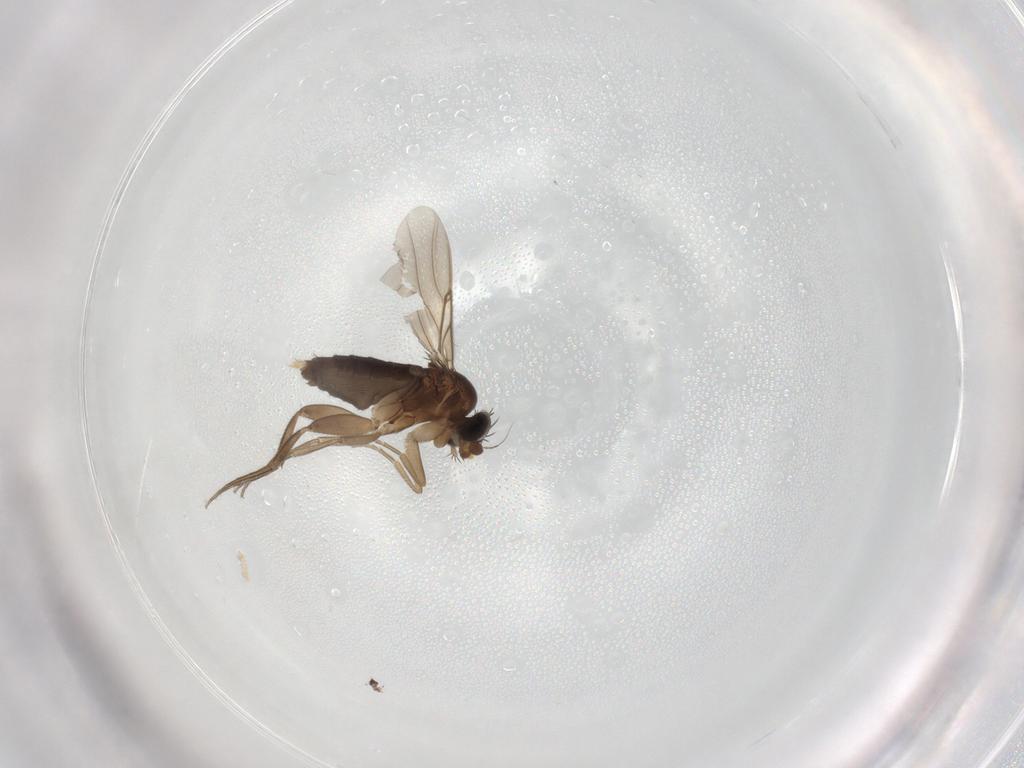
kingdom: Animalia
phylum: Arthropoda
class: Insecta
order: Diptera
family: Phoridae
